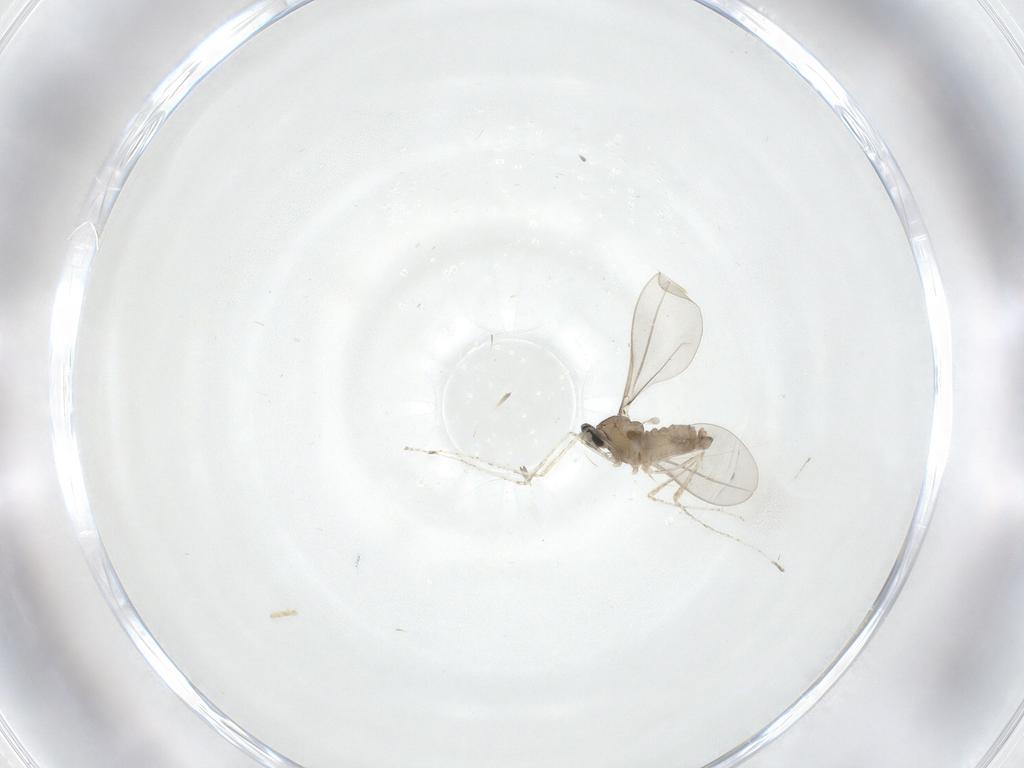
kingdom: Animalia
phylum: Arthropoda
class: Insecta
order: Diptera
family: Cecidomyiidae
